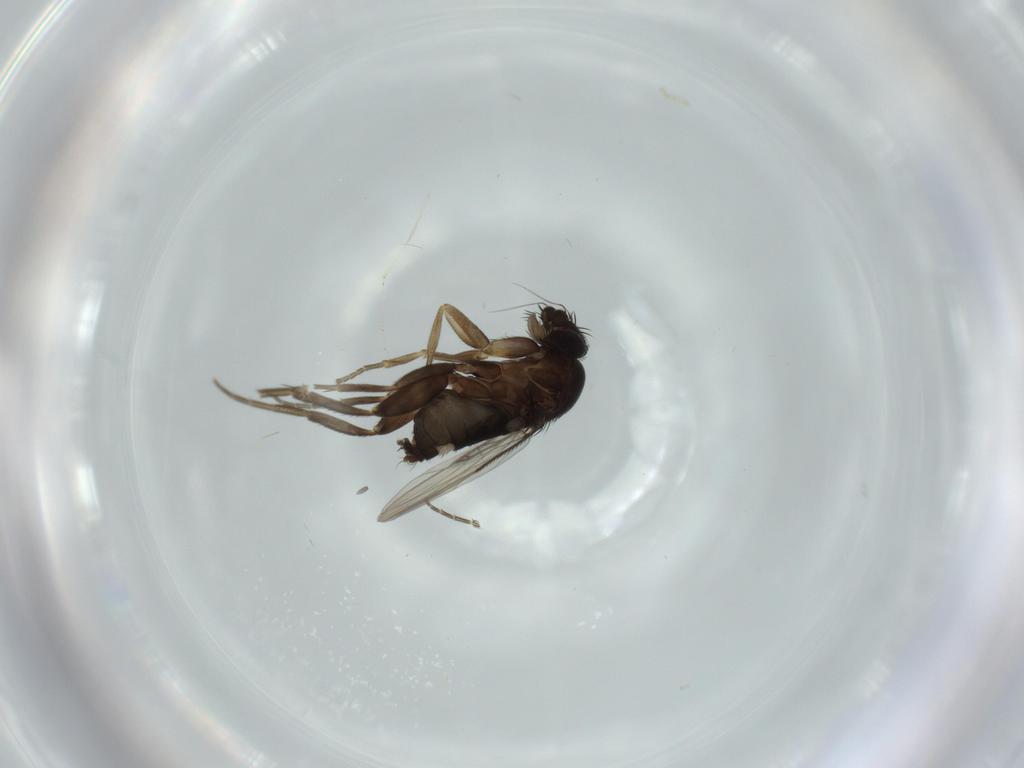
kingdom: Animalia
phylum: Arthropoda
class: Insecta
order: Diptera
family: Phoridae
